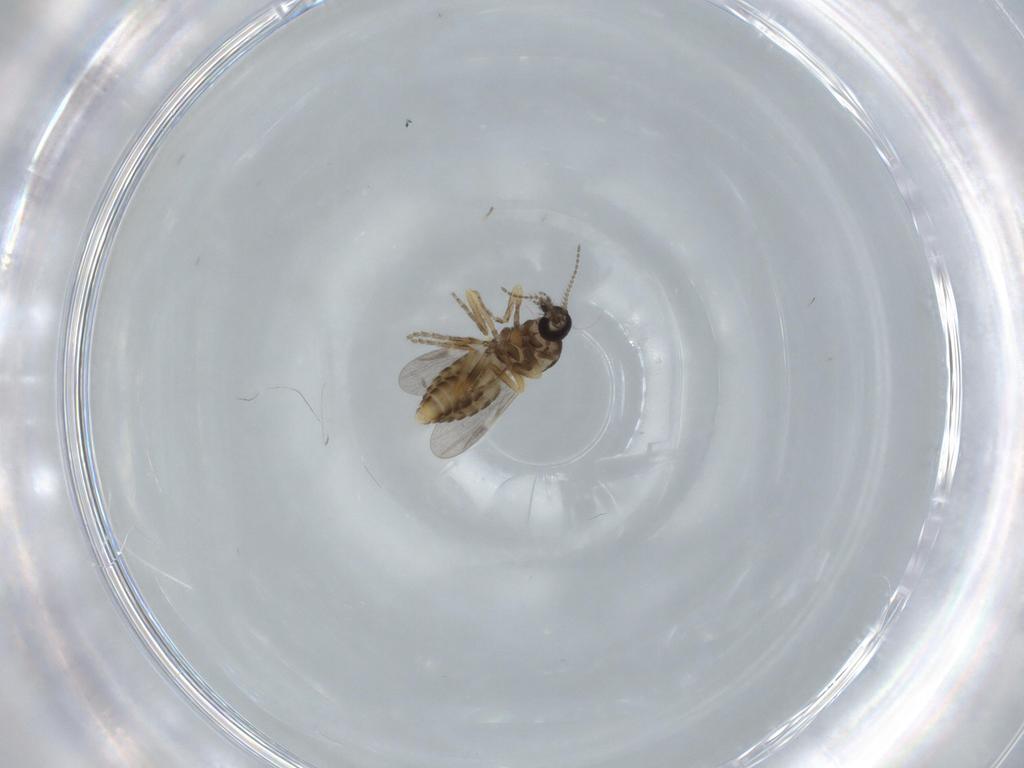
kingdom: Animalia
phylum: Arthropoda
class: Insecta
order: Diptera
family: Ceratopogonidae
